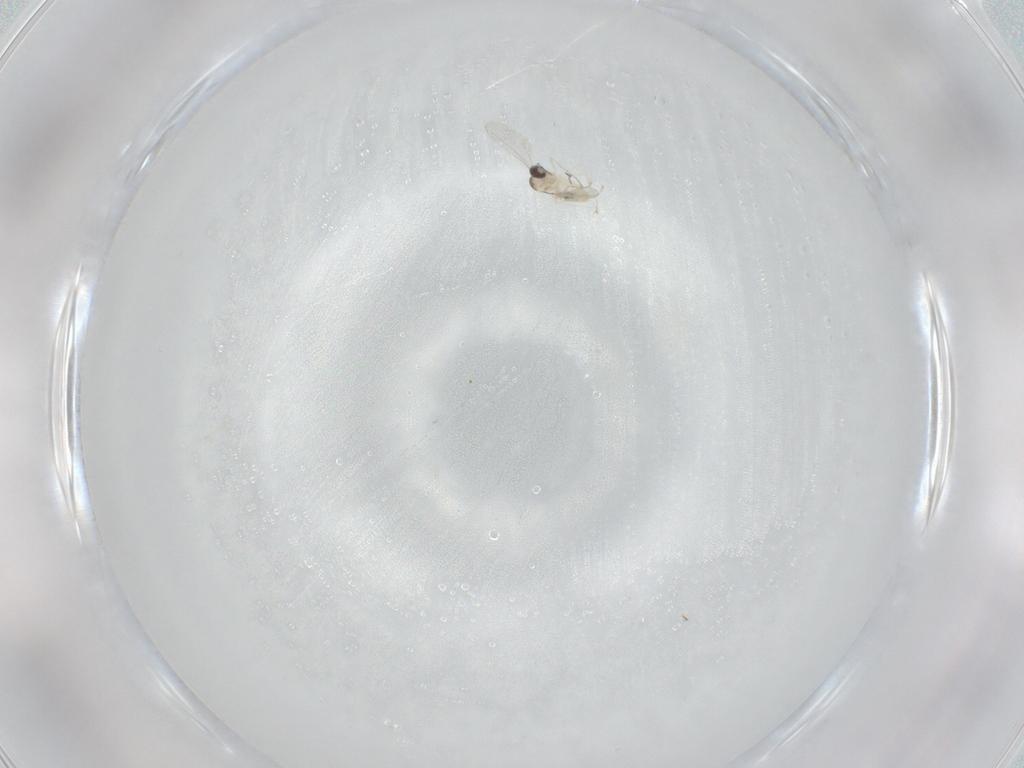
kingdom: Animalia
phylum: Arthropoda
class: Insecta
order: Diptera
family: Cecidomyiidae
